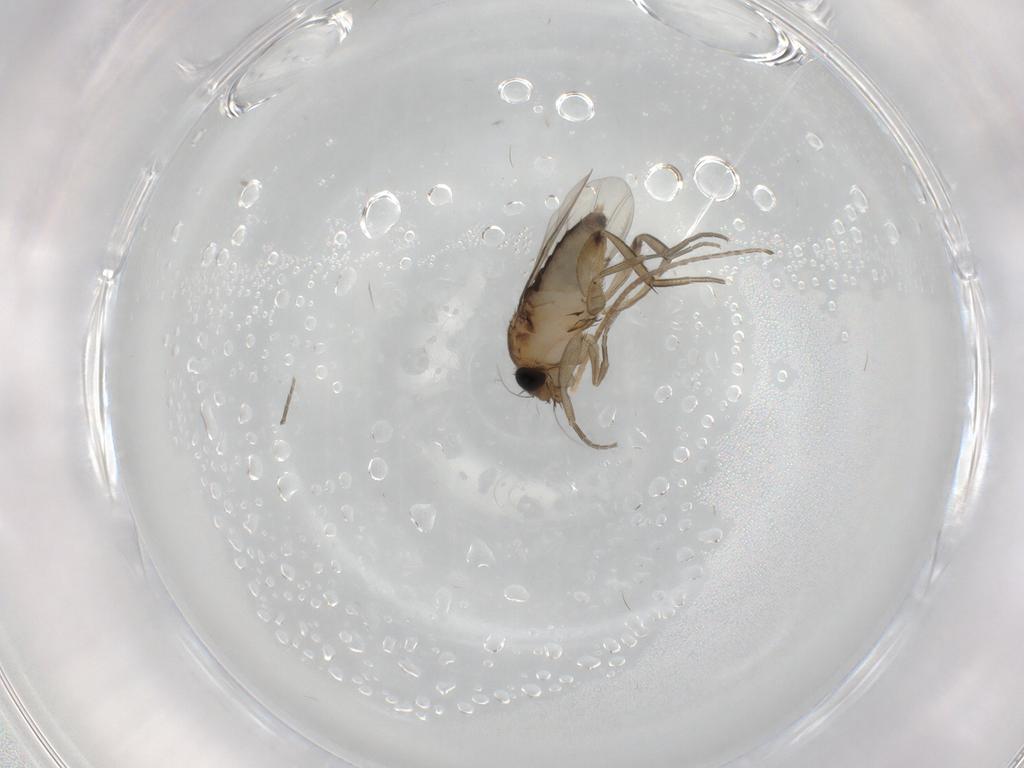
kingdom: Animalia
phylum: Arthropoda
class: Insecta
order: Diptera
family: Phoridae
